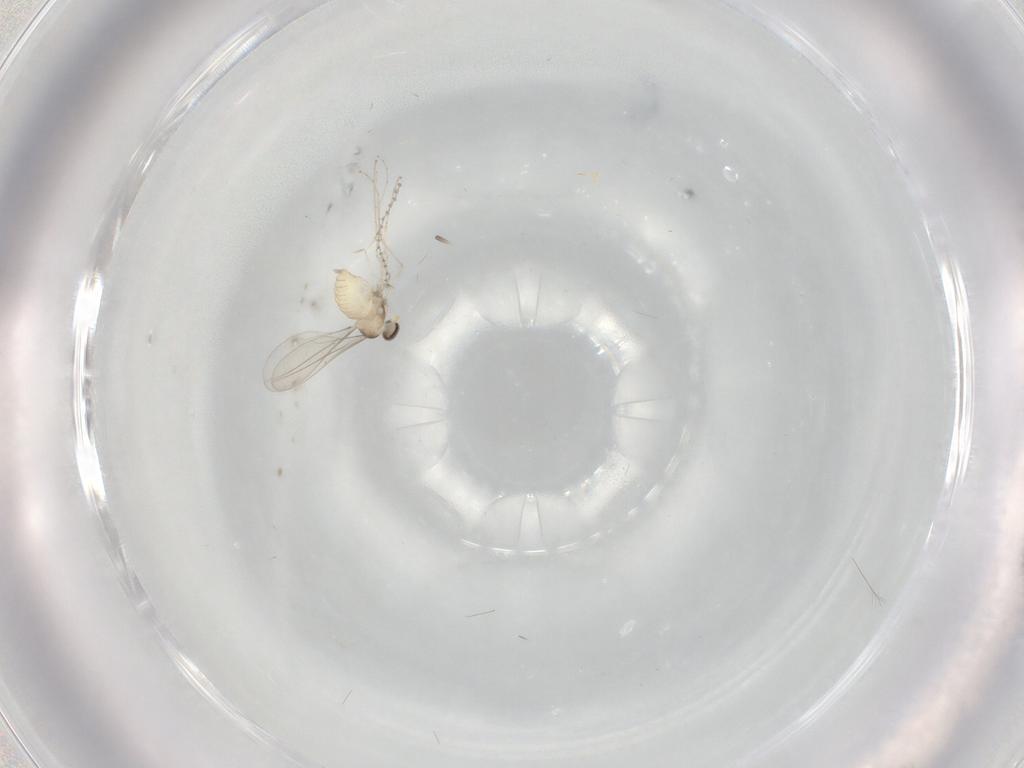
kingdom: Animalia
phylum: Arthropoda
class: Insecta
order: Diptera
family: Cecidomyiidae
